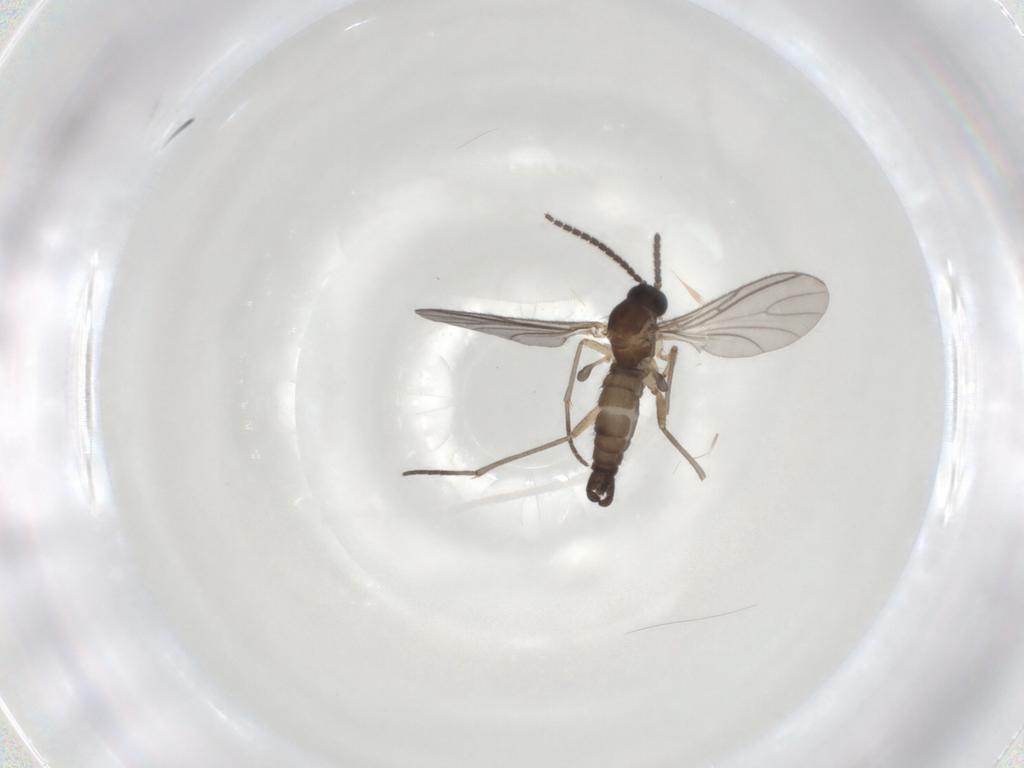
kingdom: Animalia
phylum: Arthropoda
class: Insecta
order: Diptera
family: Sciaridae
